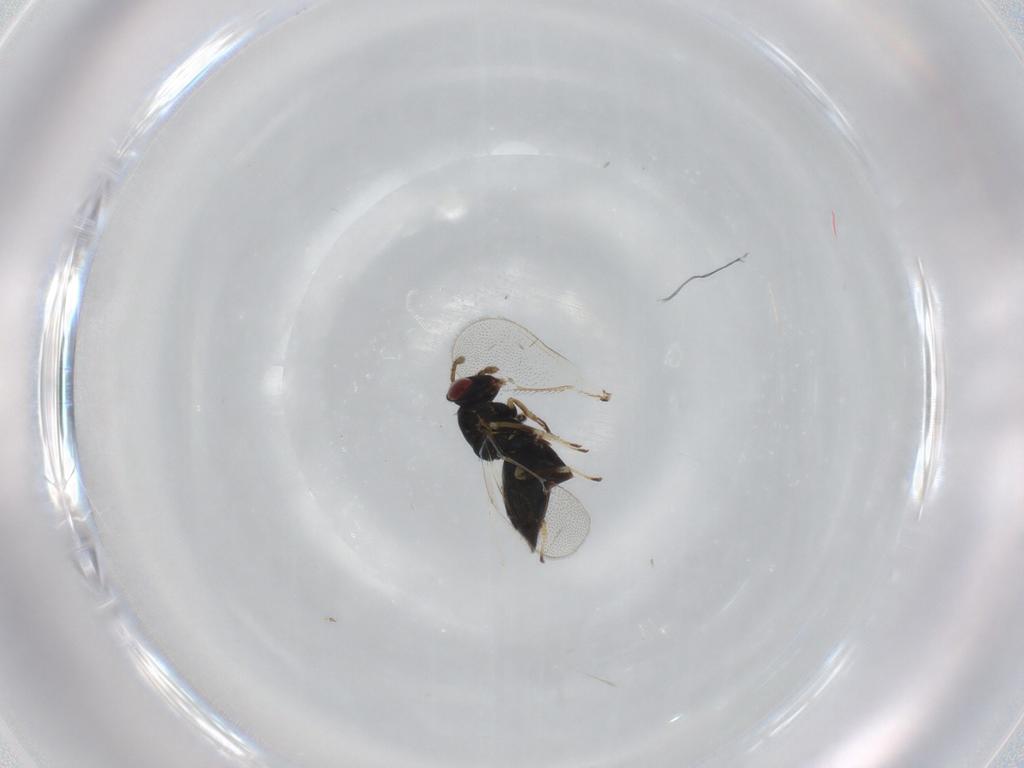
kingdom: Animalia
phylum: Arthropoda
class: Insecta
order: Hymenoptera
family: Eulophidae
